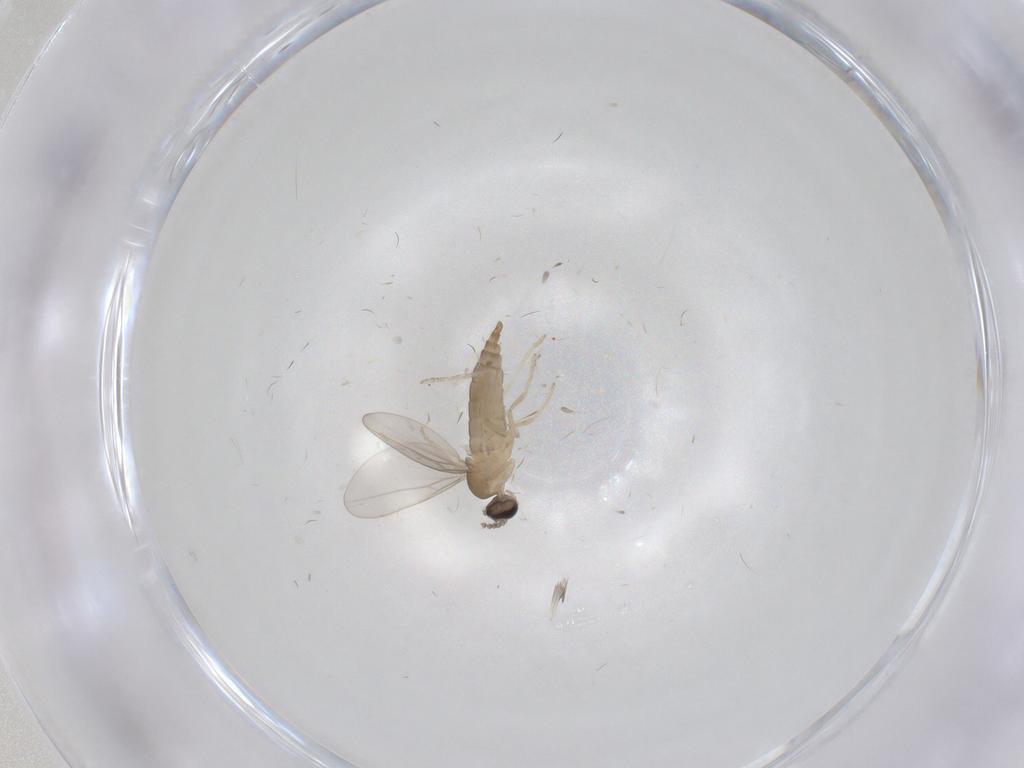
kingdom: Animalia
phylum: Arthropoda
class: Insecta
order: Diptera
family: Cecidomyiidae
